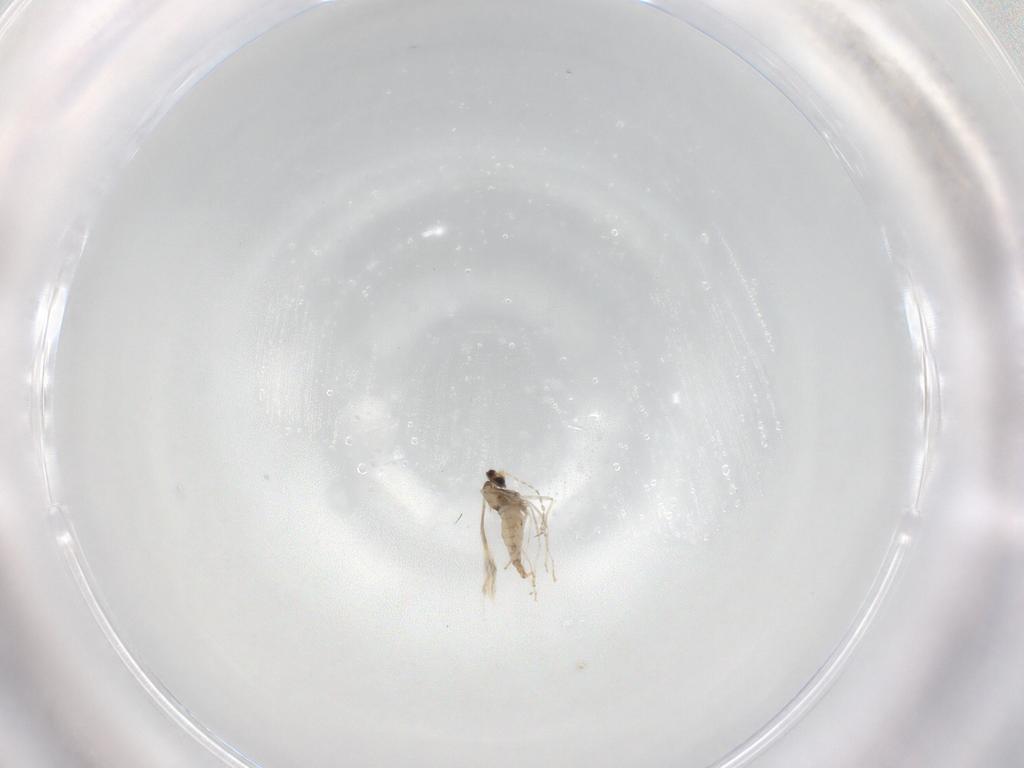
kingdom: Animalia
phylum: Arthropoda
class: Insecta
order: Diptera
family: Cecidomyiidae
